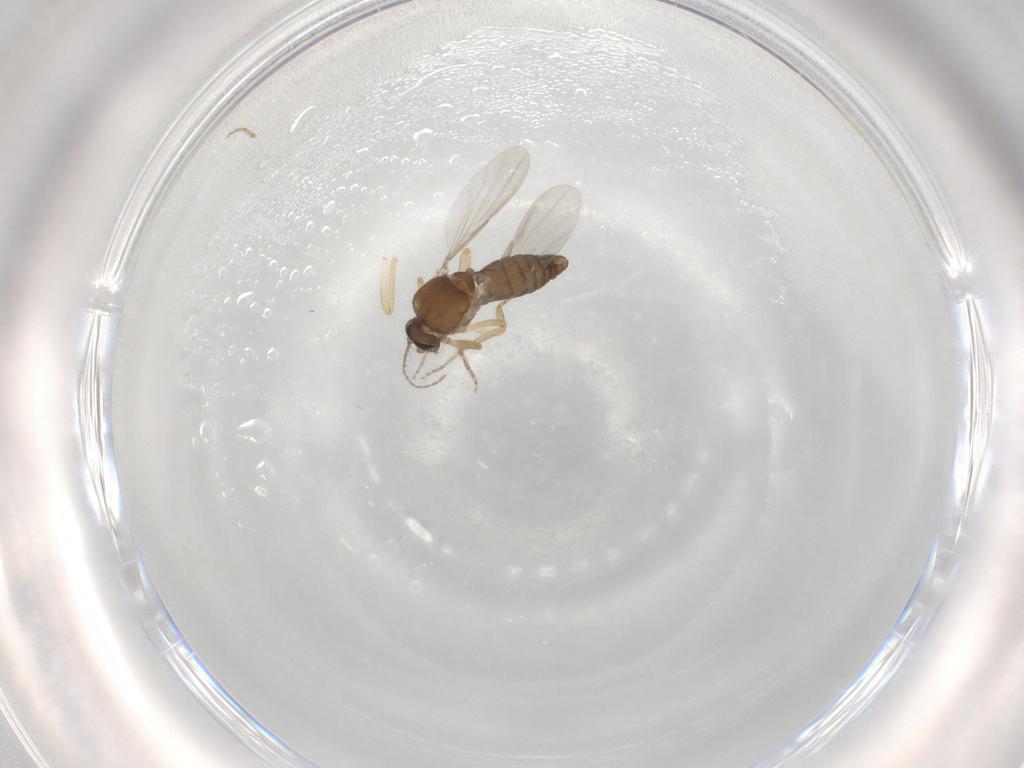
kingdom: Animalia
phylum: Arthropoda
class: Insecta
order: Diptera
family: Ceratopogonidae
